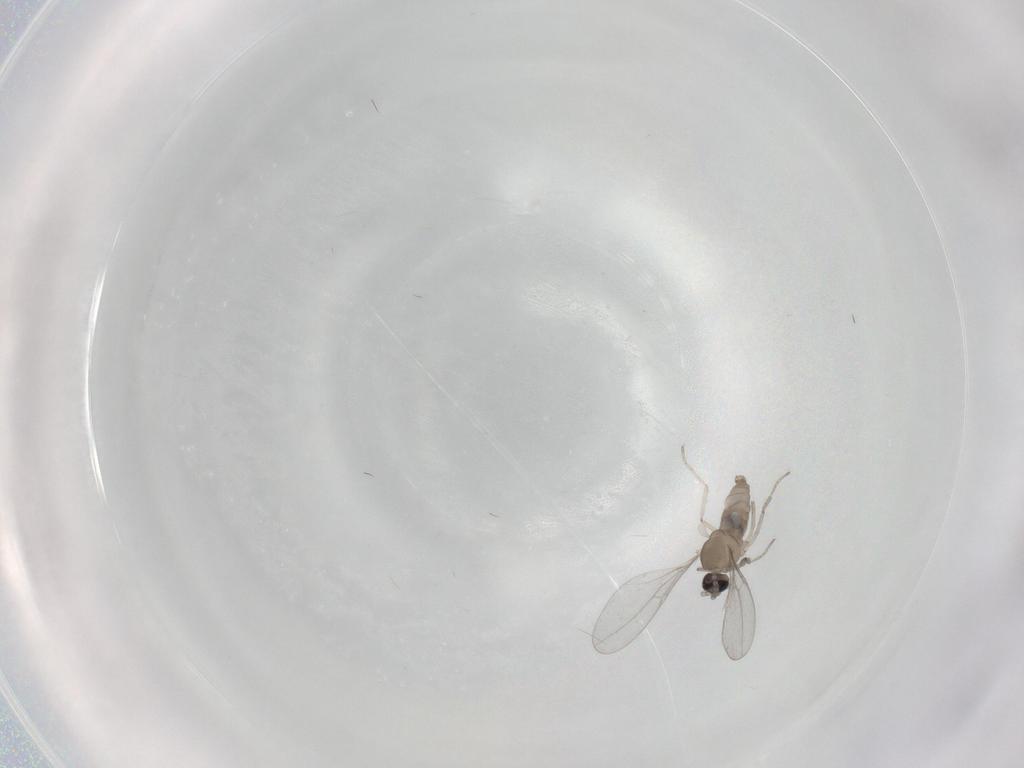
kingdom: Animalia
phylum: Arthropoda
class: Insecta
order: Diptera
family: Cecidomyiidae
